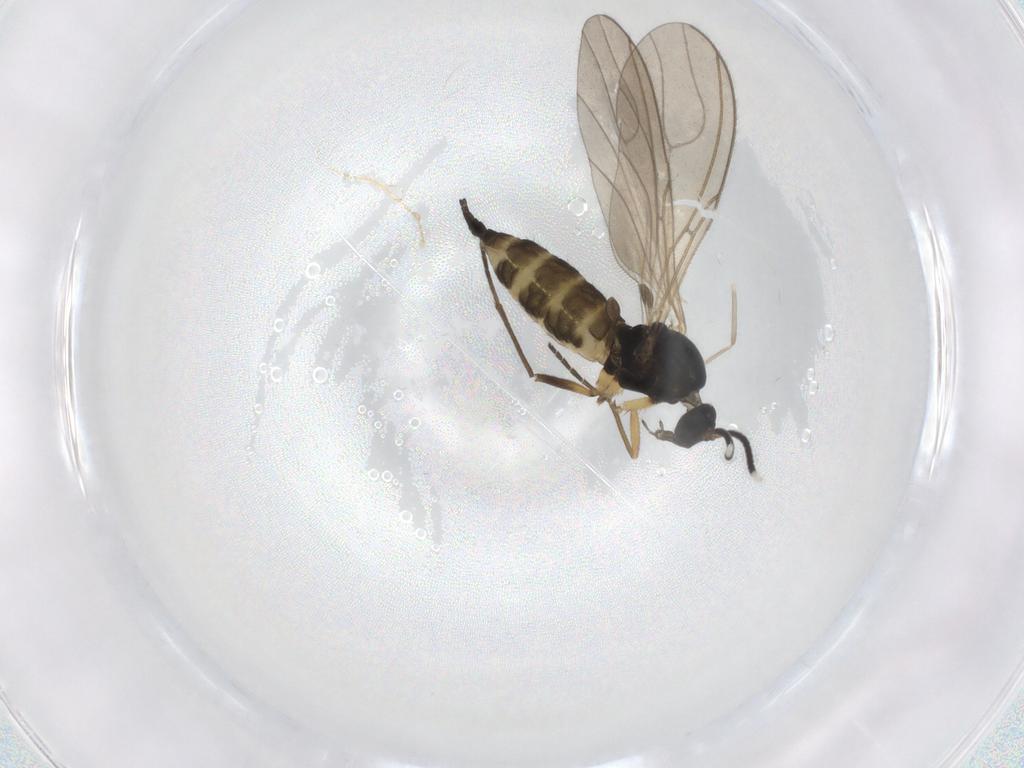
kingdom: Animalia
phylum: Arthropoda
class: Insecta
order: Diptera
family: Sciaridae
